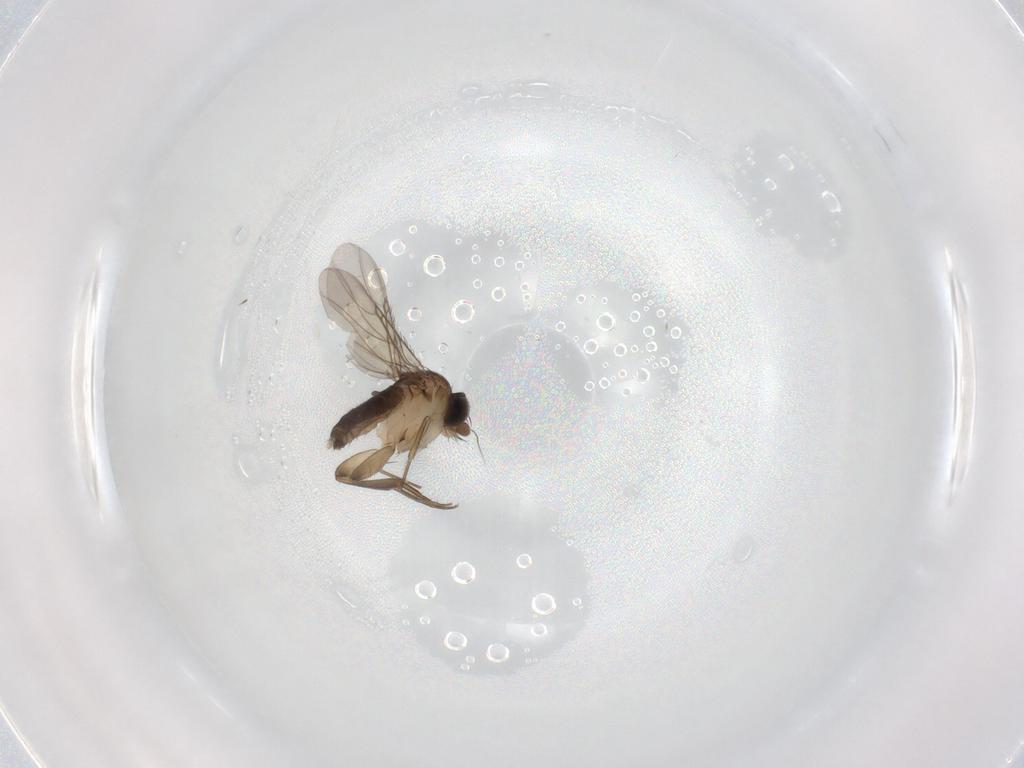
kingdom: Animalia
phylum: Arthropoda
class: Insecta
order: Diptera
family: Phoridae
